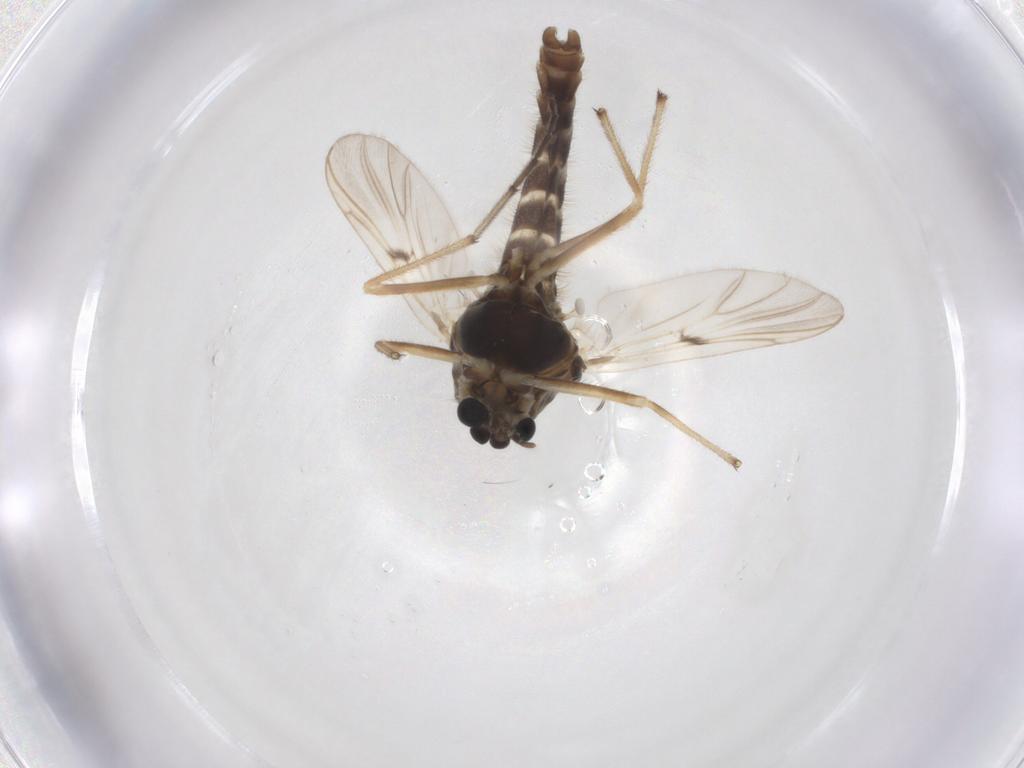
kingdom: Animalia
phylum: Arthropoda
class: Insecta
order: Diptera
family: Chironomidae
